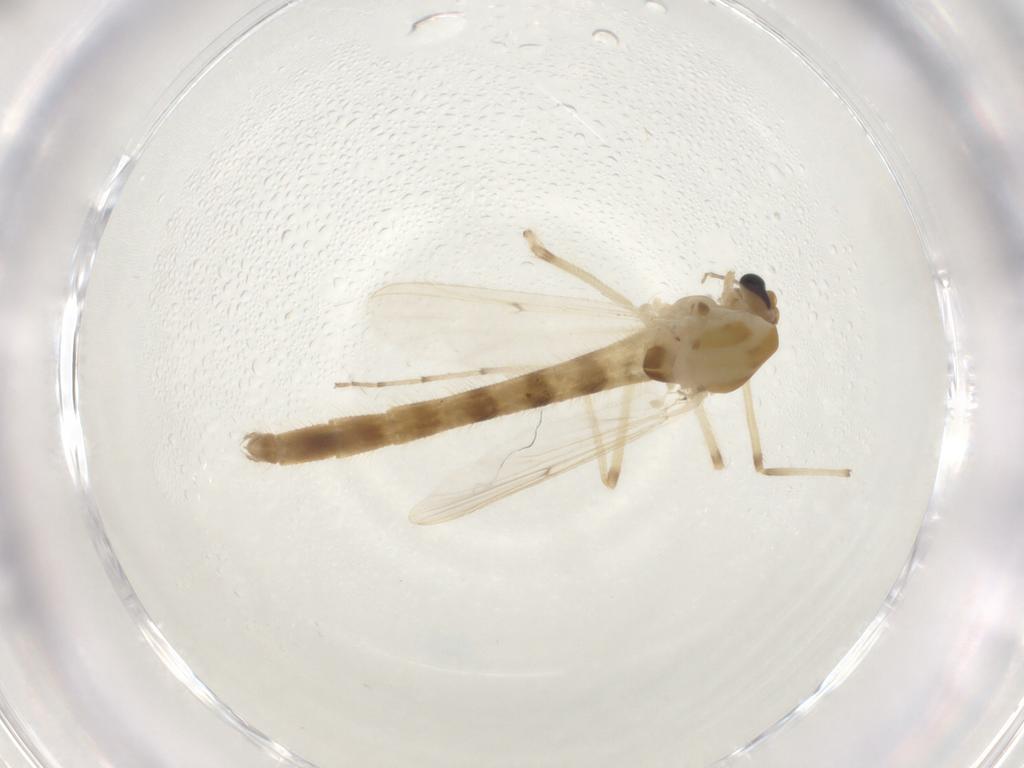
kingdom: Animalia
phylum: Arthropoda
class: Insecta
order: Diptera
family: Chironomidae
